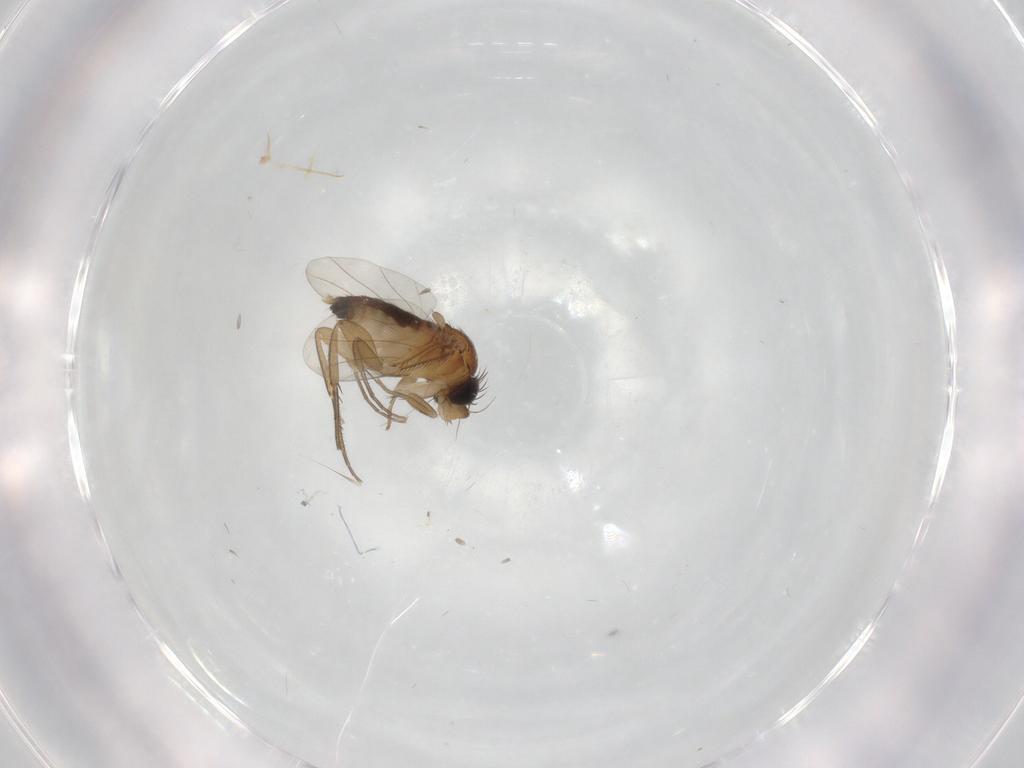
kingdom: Animalia
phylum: Arthropoda
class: Insecta
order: Diptera
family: Chironomidae
